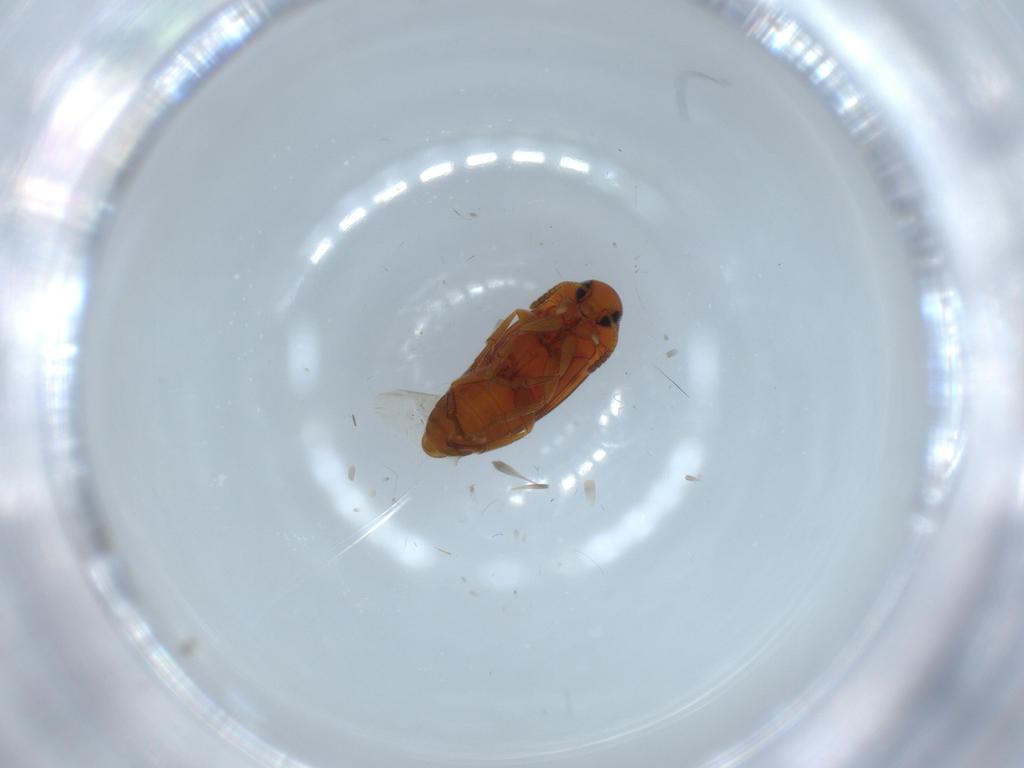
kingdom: Animalia
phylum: Arthropoda
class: Insecta
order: Coleoptera
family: Scraptiidae
